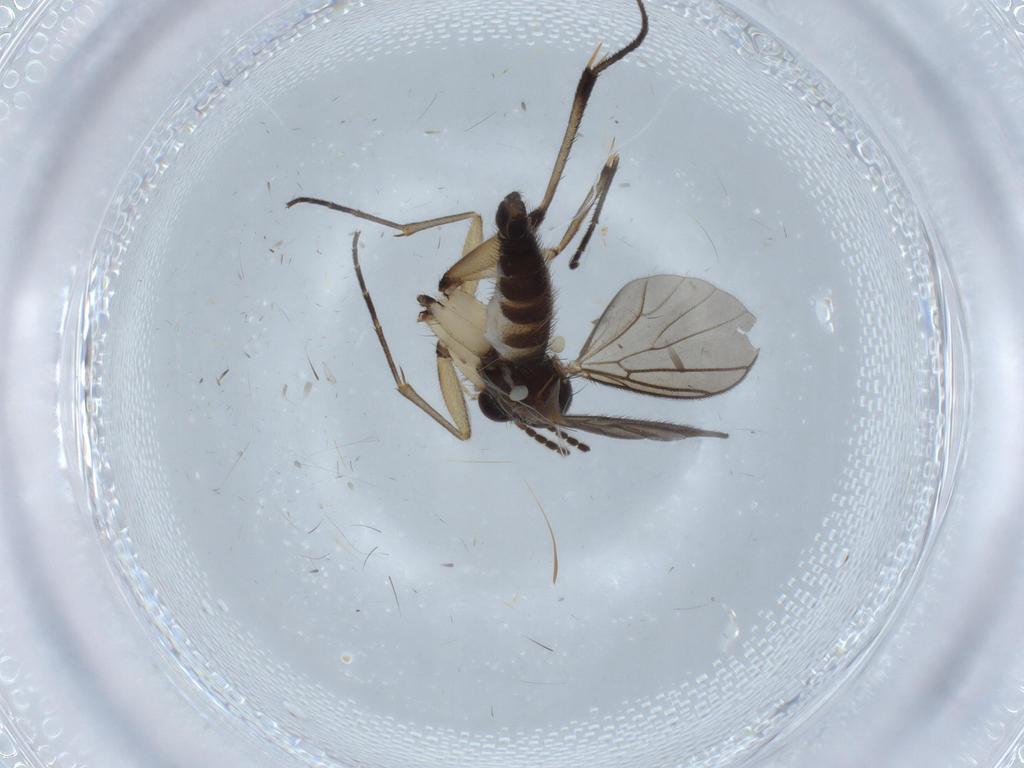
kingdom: Animalia
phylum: Arthropoda
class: Insecta
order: Diptera
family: Mycetophilidae
